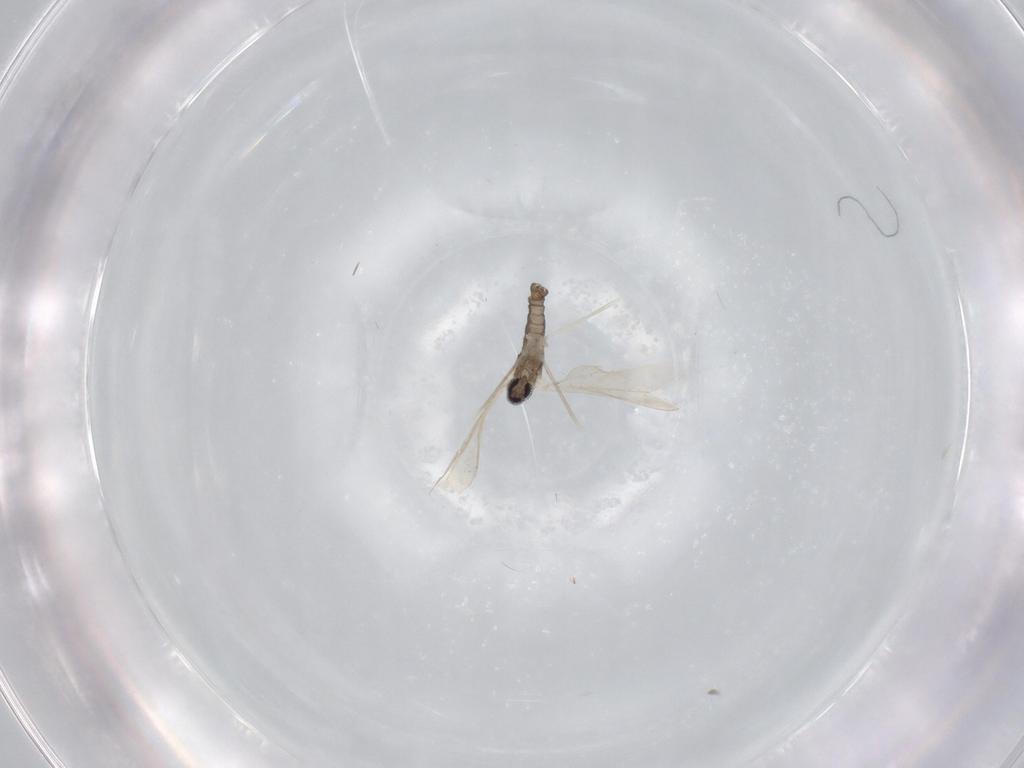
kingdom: Animalia
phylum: Arthropoda
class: Insecta
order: Diptera
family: Cecidomyiidae
